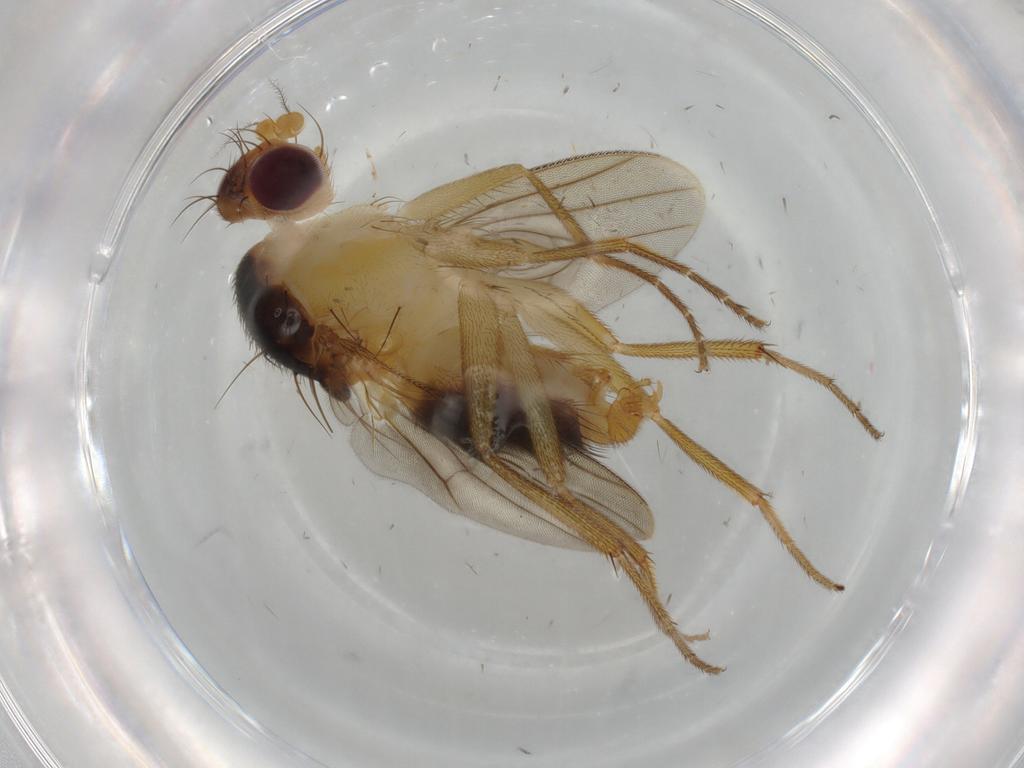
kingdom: Animalia
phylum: Arthropoda
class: Insecta
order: Diptera
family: Clusiidae
